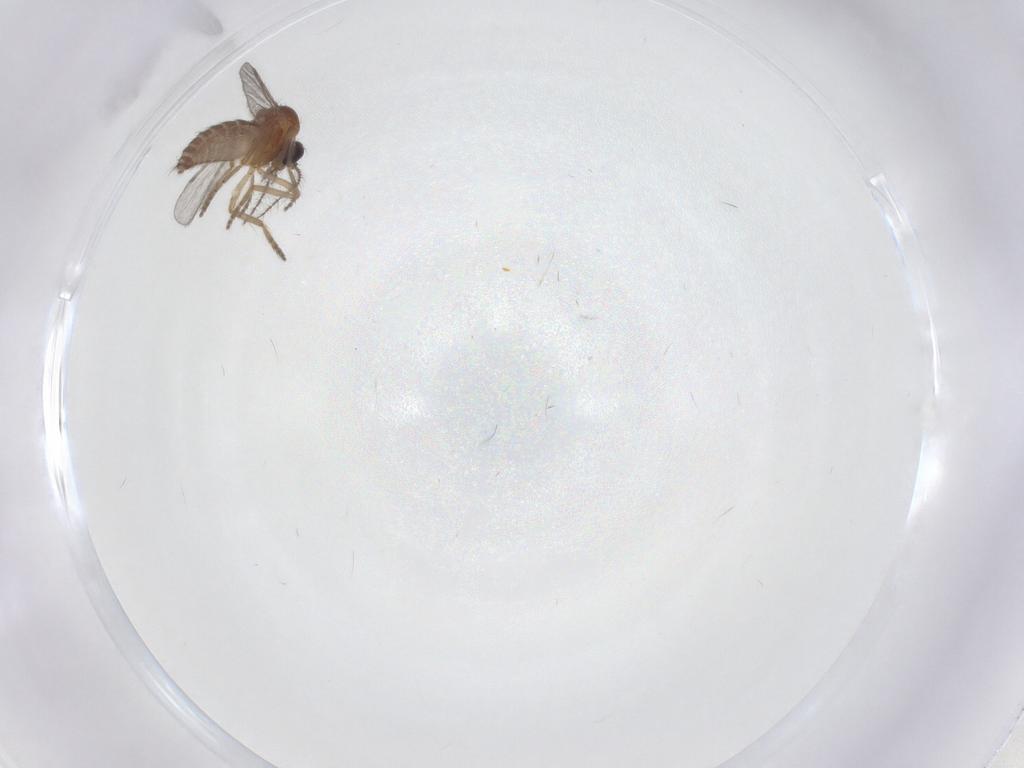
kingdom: Animalia
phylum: Arthropoda
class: Insecta
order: Diptera
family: Ceratopogonidae
